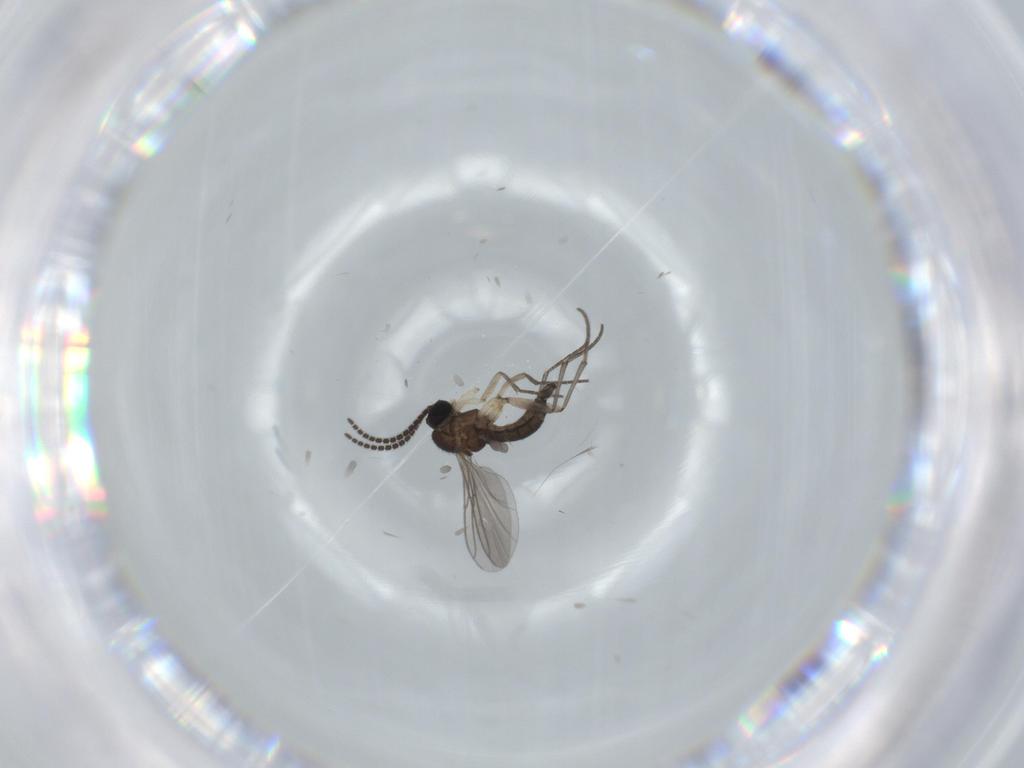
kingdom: Animalia
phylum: Arthropoda
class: Insecta
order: Diptera
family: Sciaridae
